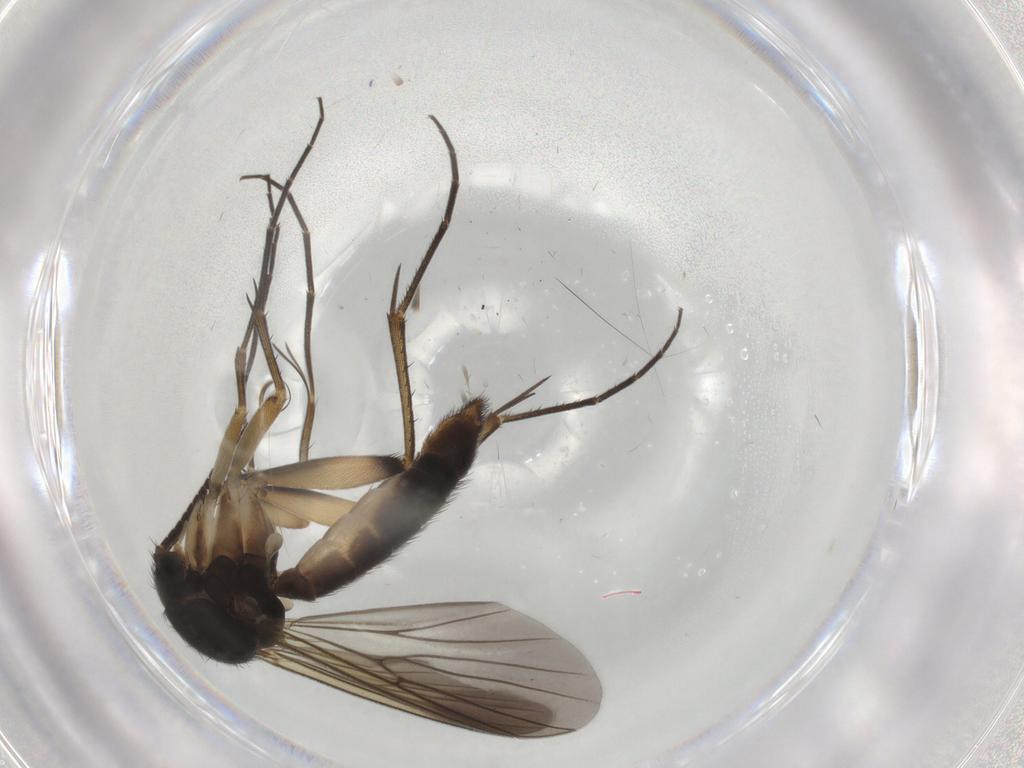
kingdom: Animalia
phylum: Arthropoda
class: Insecta
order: Diptera
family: Mycetophilidae
